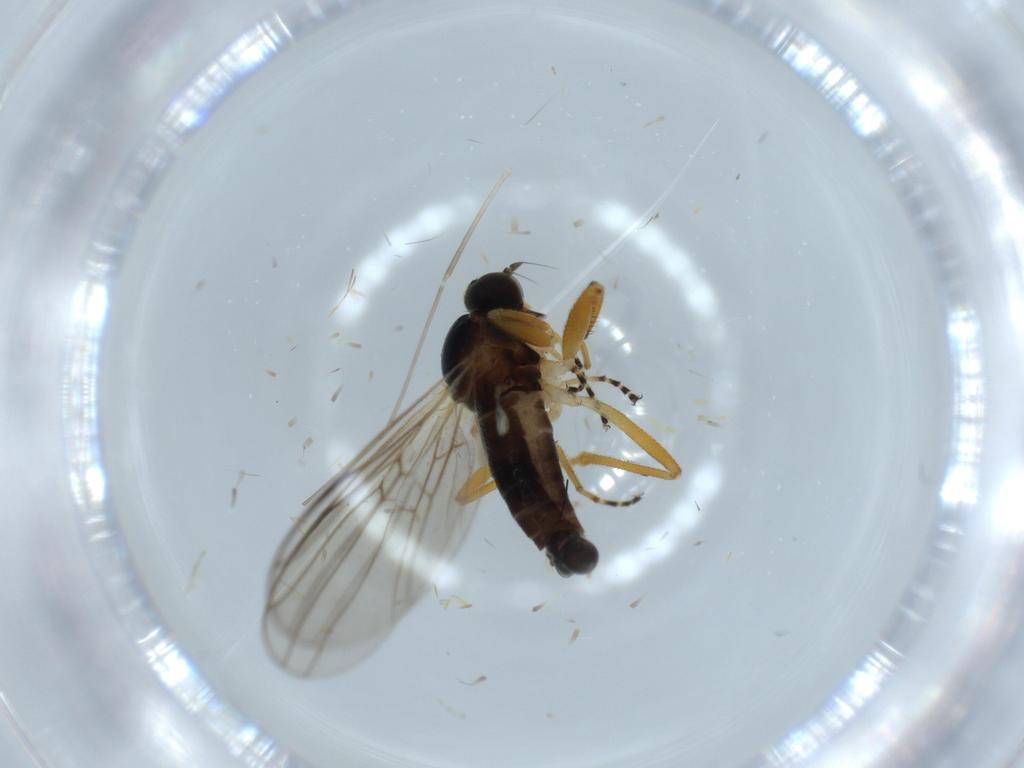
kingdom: Animalia
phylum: Arthropoda
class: Insecta
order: Diptera
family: Hybotidae
